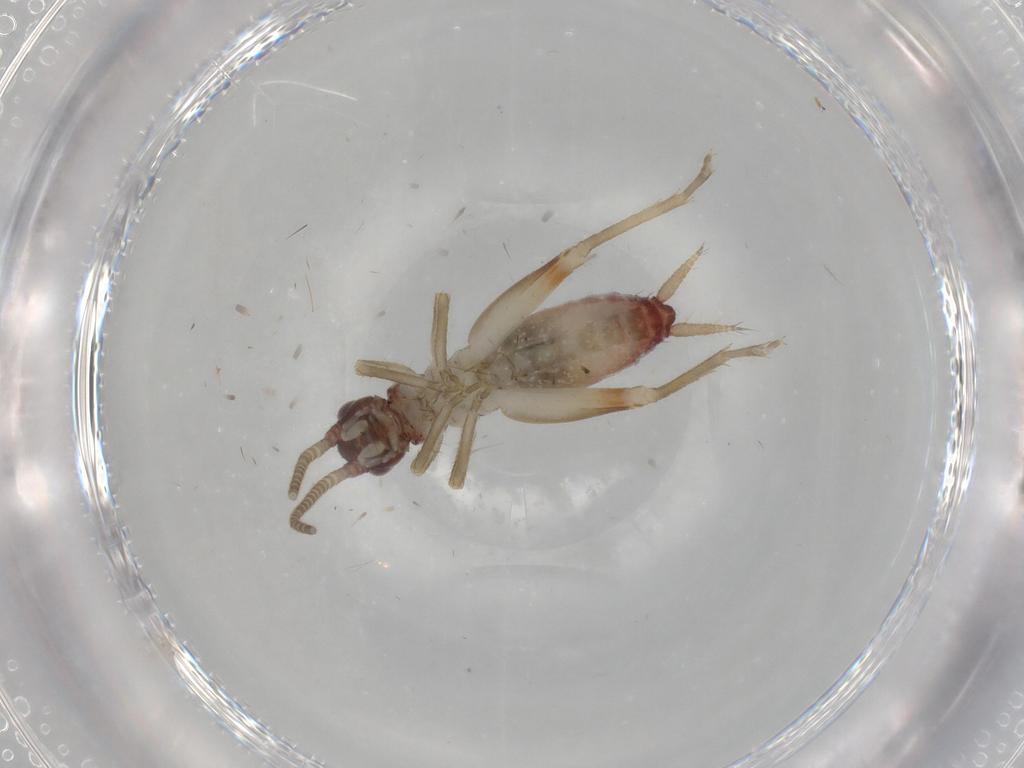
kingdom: Animalia
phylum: Arthropoda
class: Insecta
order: Orthoptera
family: Gryllidae
